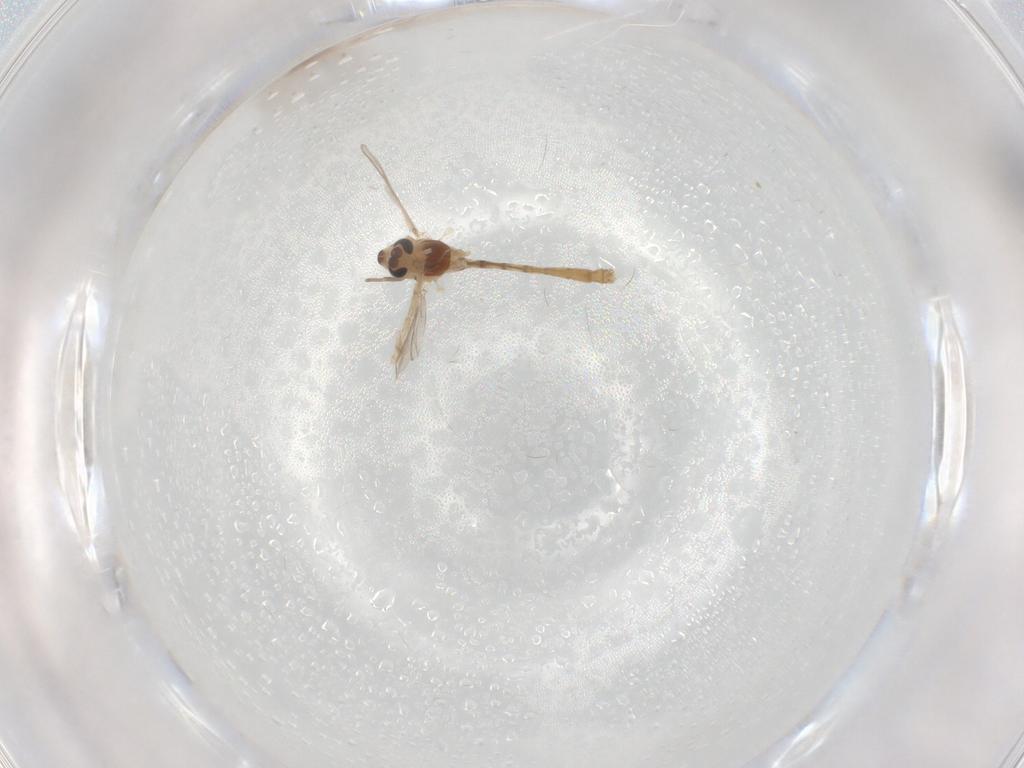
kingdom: Animalia
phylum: Arthropoda
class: Insecta
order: Diptera
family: Chironomidae
